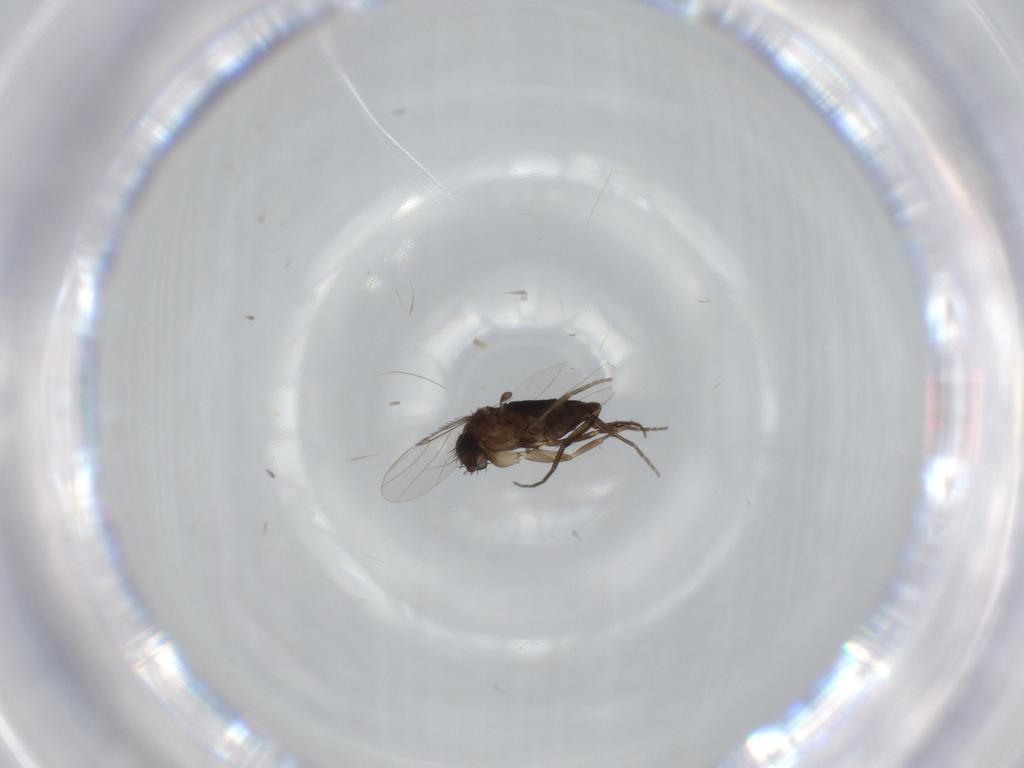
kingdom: Animalia
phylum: Arthropoda
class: Insecta
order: Diptera
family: Phoridae
